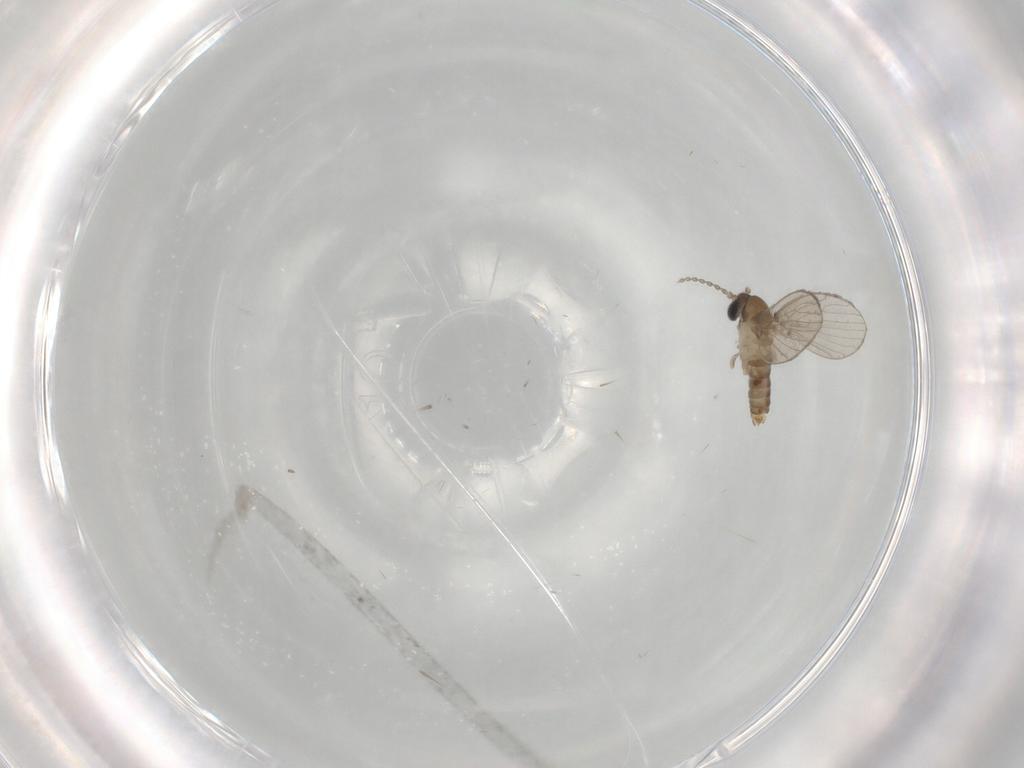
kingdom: Animalia
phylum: Arthropoda
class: Insecta
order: Diptera
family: Psychodidae
